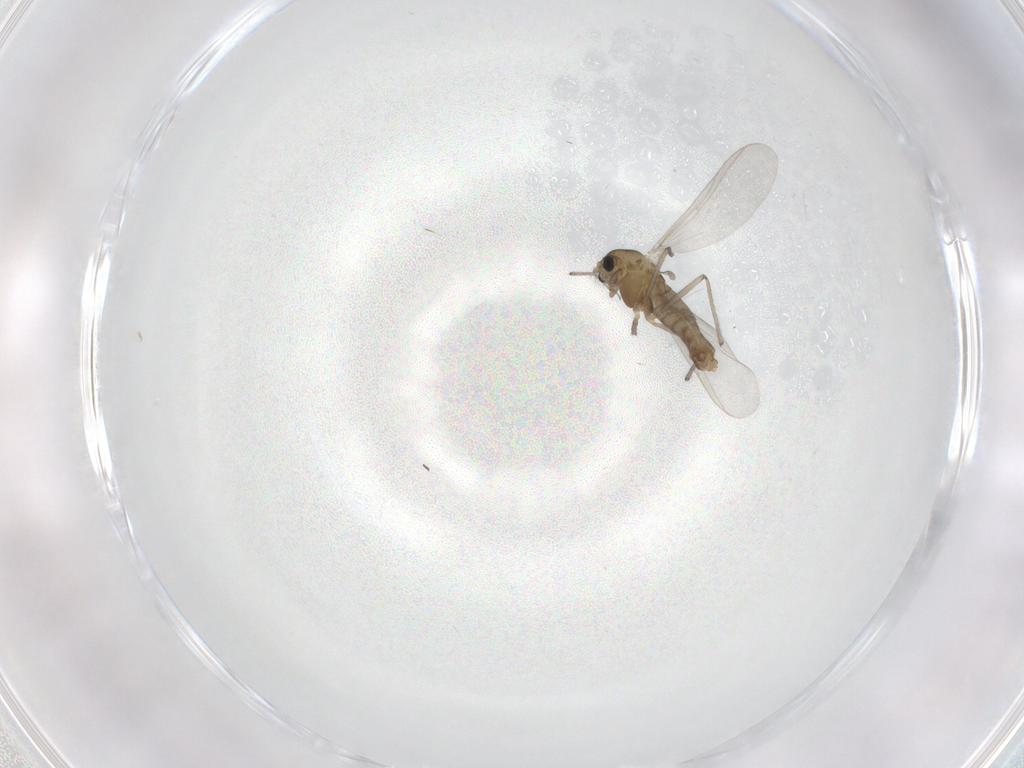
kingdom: Animalia
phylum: Arthropoda
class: Insecta
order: Diptera
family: Chironomidae
